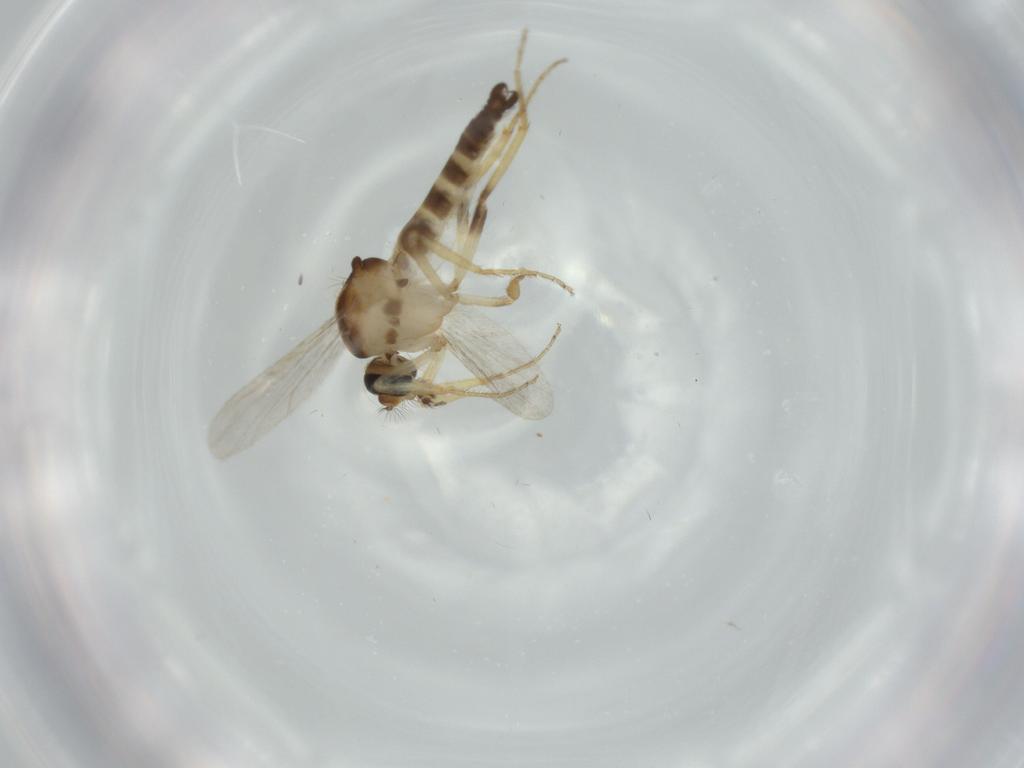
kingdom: Animalia
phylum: Arthropoda
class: Insecta
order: Diptera
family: Ceratopogonidae
